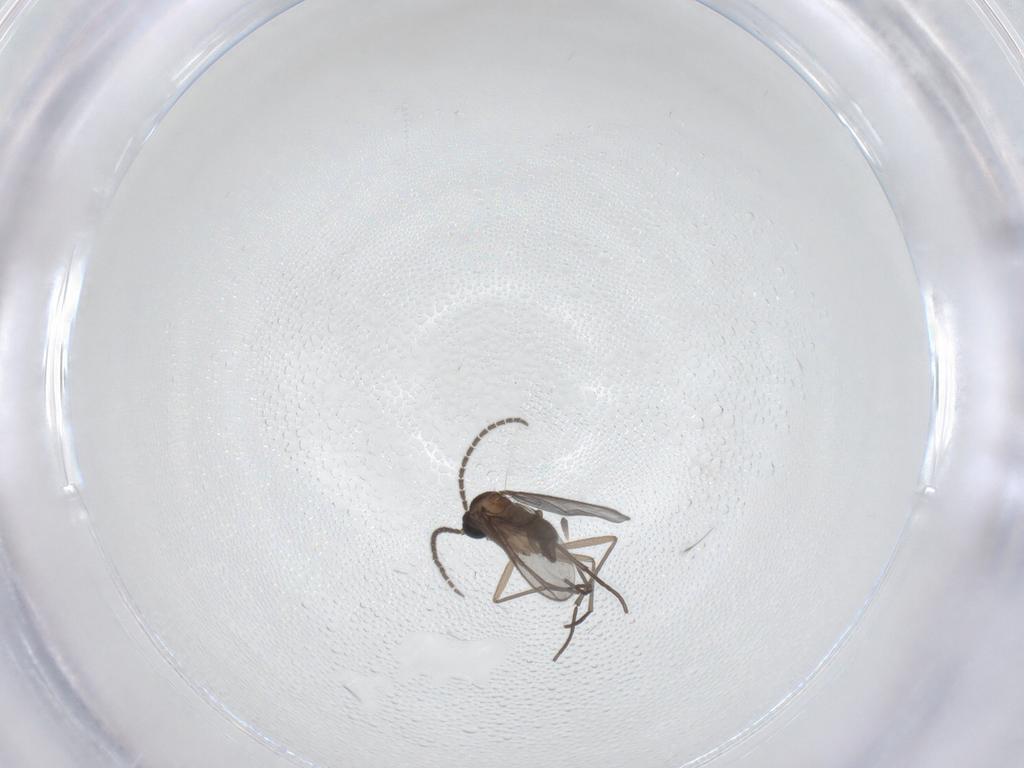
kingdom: Animalia
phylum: Arthropoda
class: Insecta
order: Diptera
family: Sciaridae
